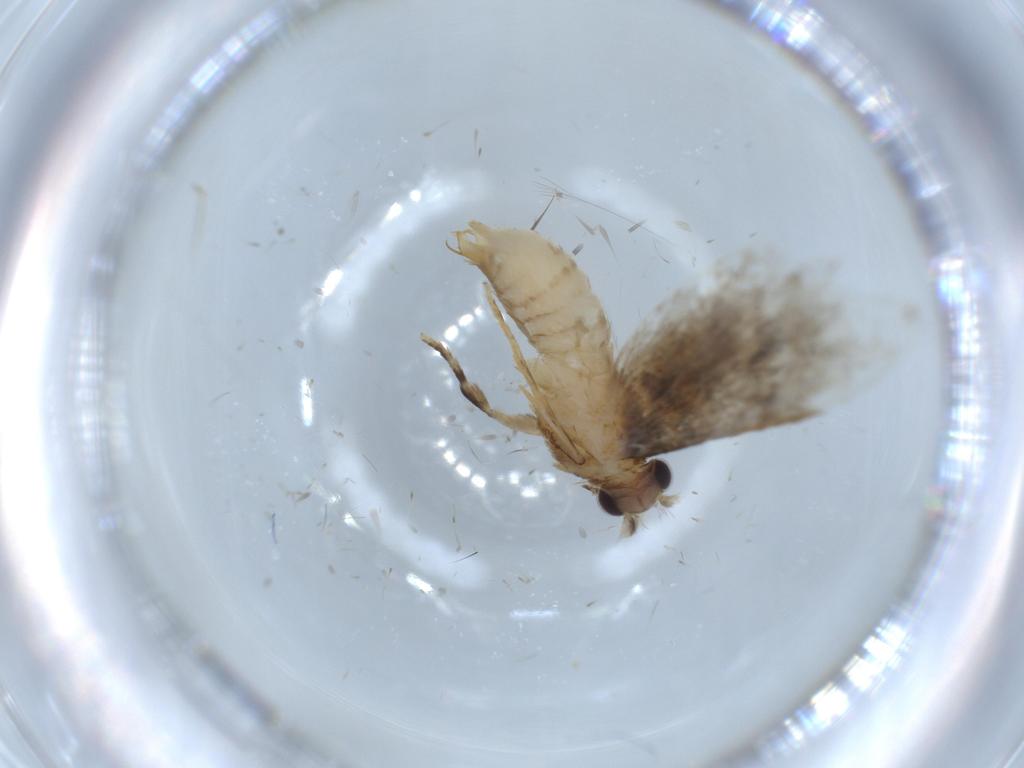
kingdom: Animalia
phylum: Arthropoda
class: Insecta
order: Lepidoptera
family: Tineidae
